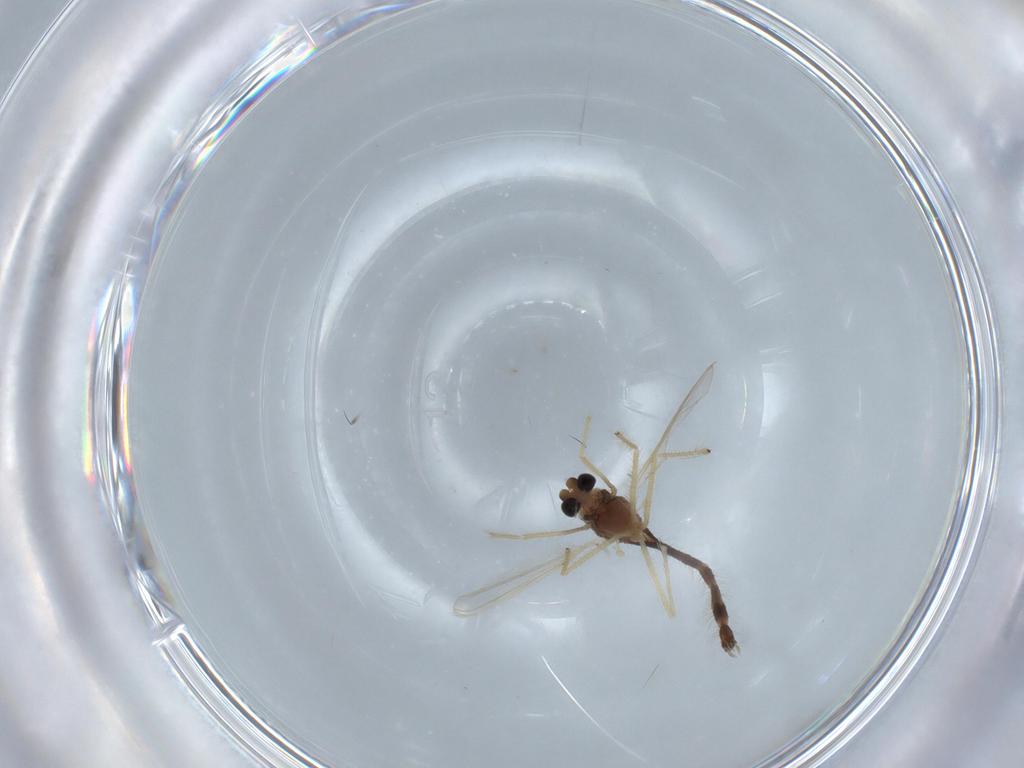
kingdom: Animalia
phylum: Arthropoda
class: Insecta
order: Diptera
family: Chironomidae
